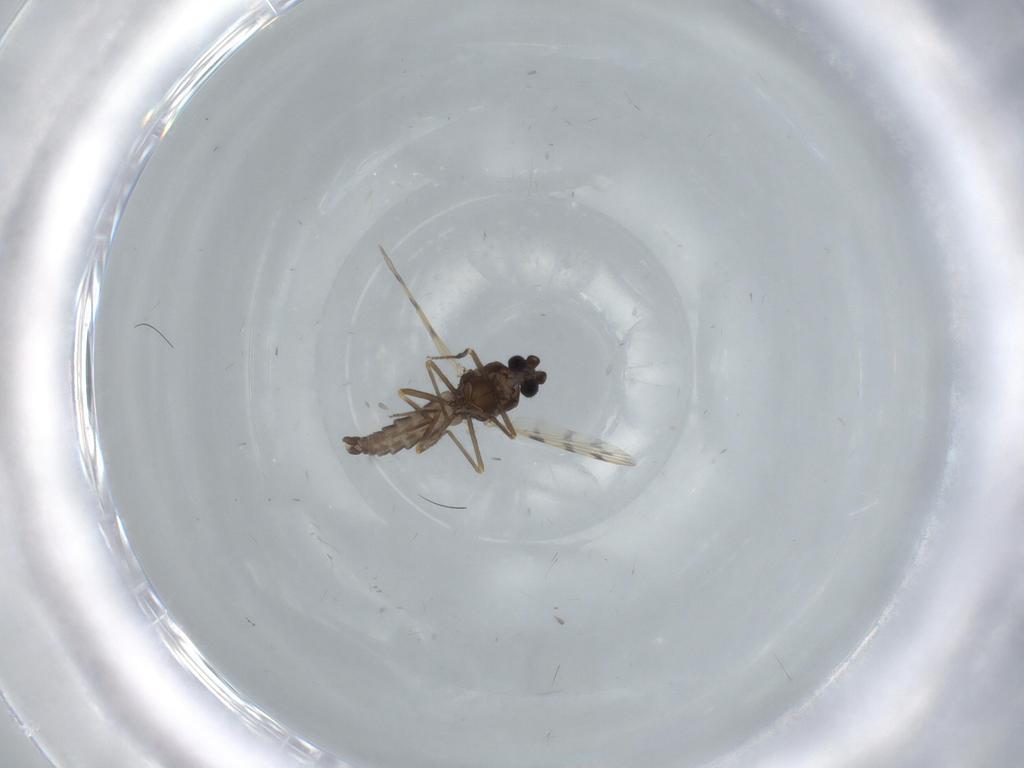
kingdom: Animalia
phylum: Arthropoda
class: Insecta
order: Diptera
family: Ceratopogonidae
